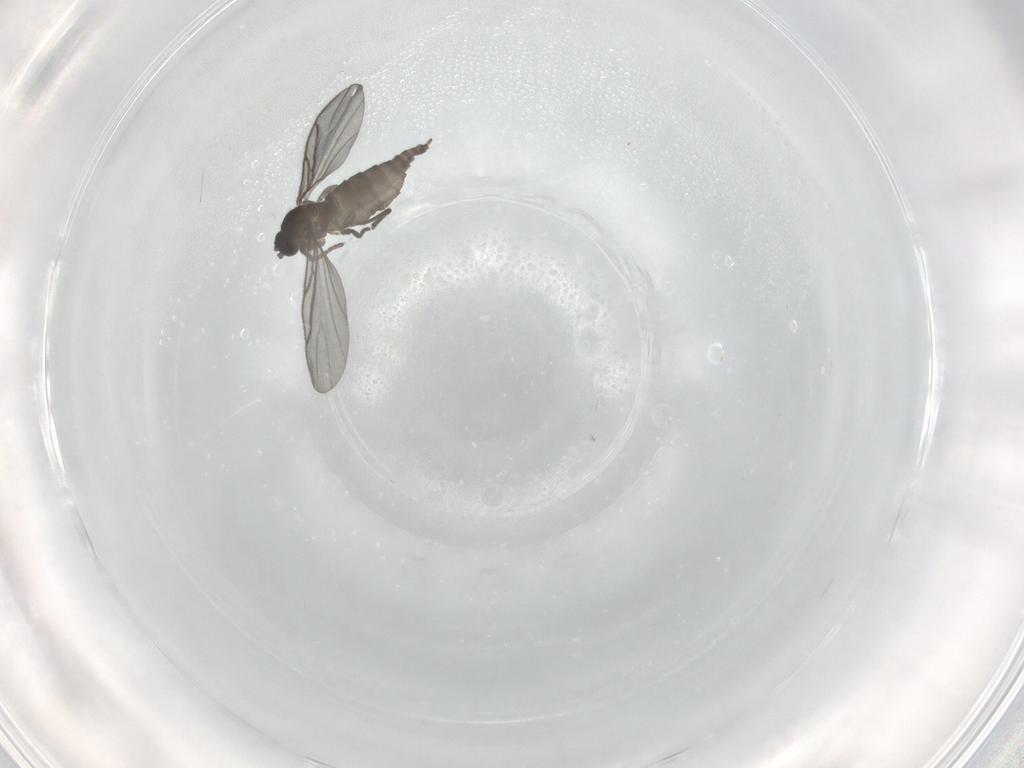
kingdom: Animalia
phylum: Arthropoda
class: Insecta
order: Diptera
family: Chironomidae
